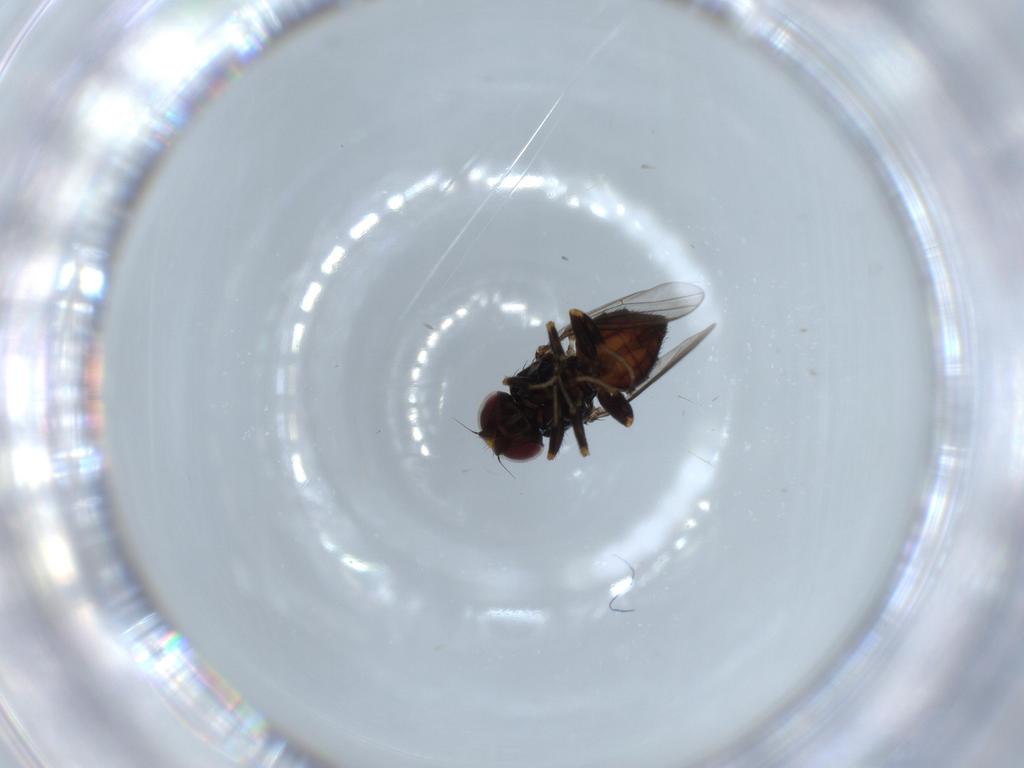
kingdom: Animalia
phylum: Arthropoda
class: Insecta
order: Diptera
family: Chloropidae
